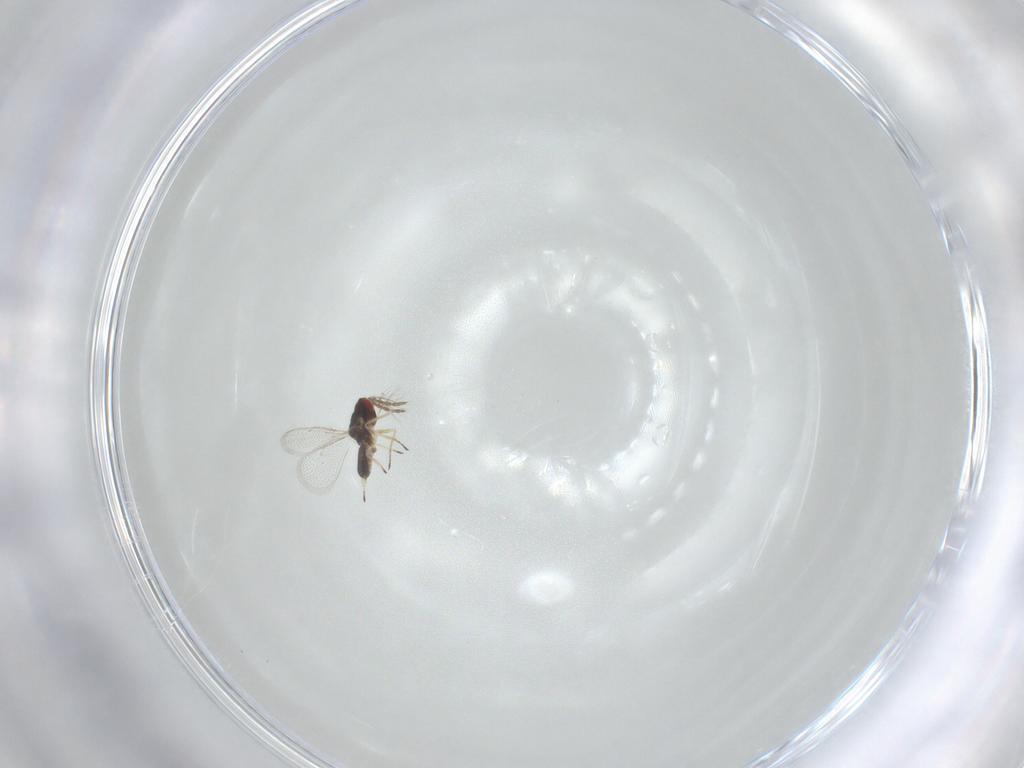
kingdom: Animalia
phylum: Arthropoda
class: Insecta
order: Hymenoptera
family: Eulophidae
